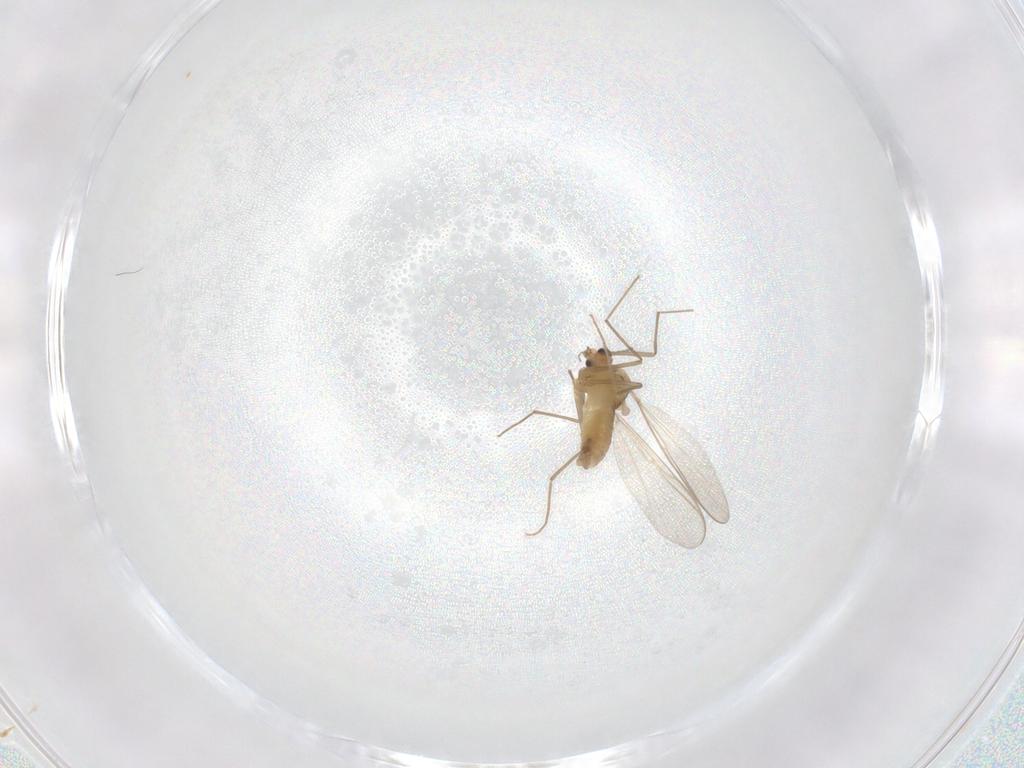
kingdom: Animalia
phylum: Arthropoda
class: Insecta
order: Diptera
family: Chironomidae
